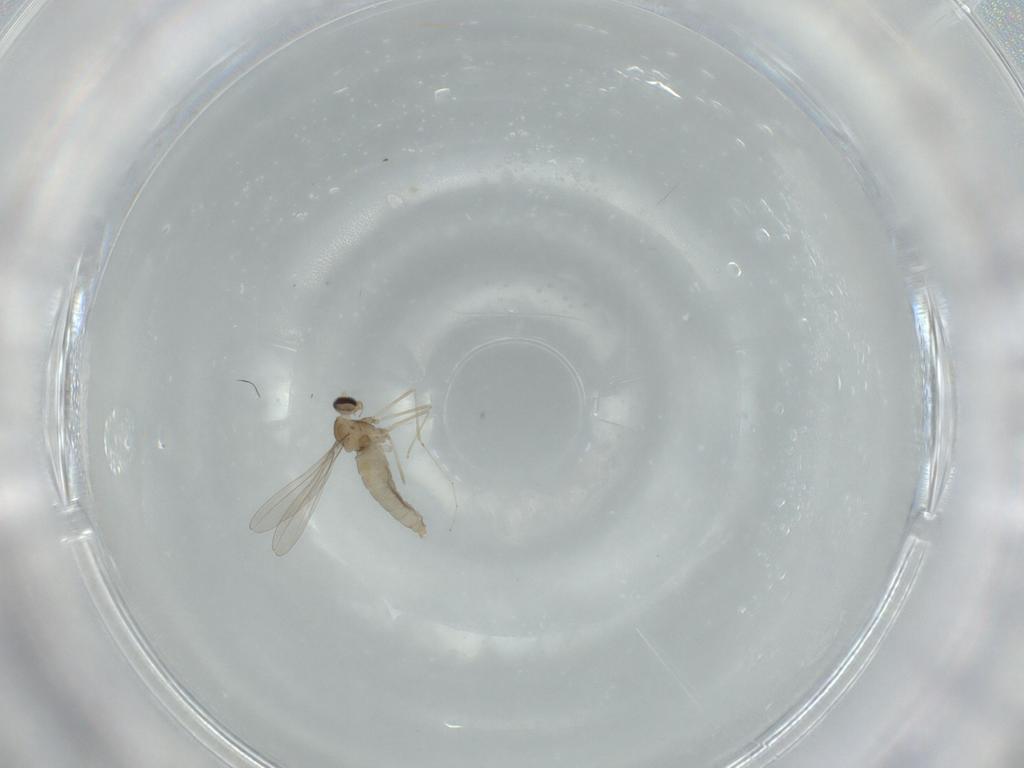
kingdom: Animalia
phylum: Arthropoda
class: Insecta
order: Diptera
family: Cecidomyiidae
